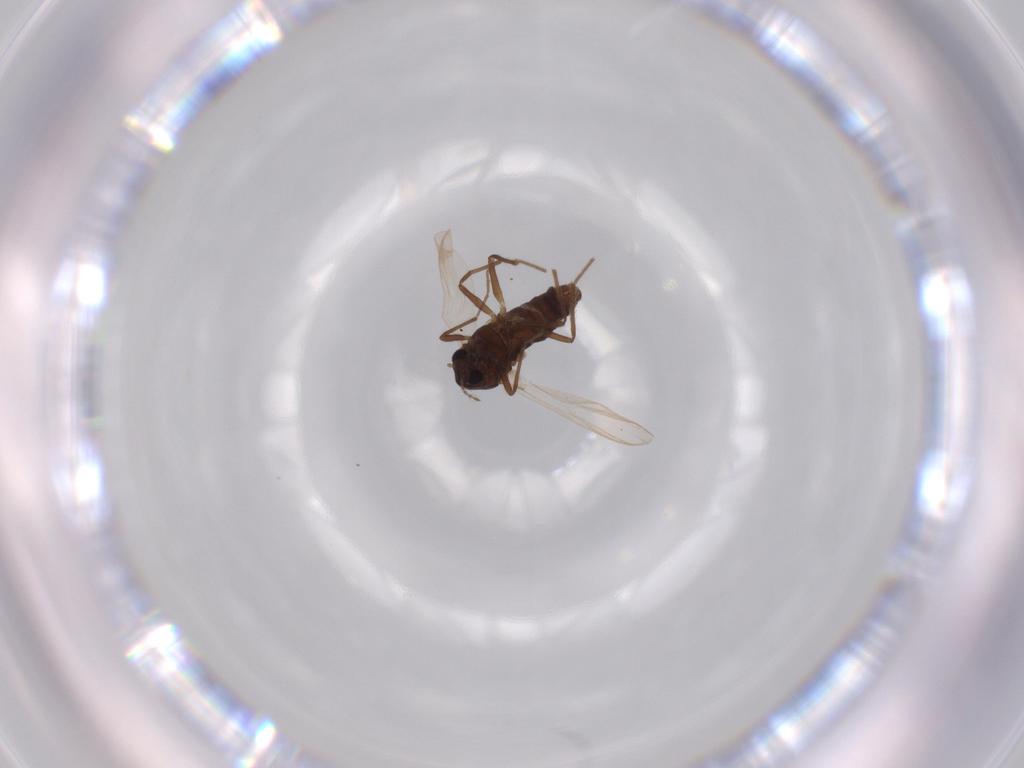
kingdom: Animalia
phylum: Arthropoda
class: Insecta
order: Diptera
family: Chironomidae
